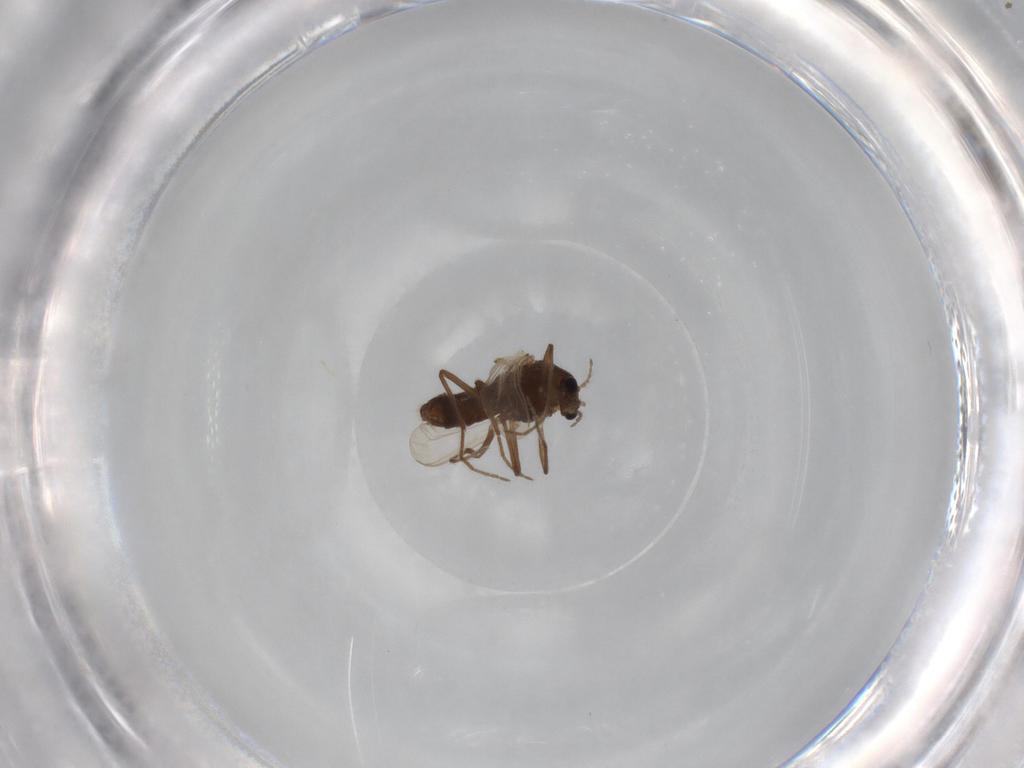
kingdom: Animalia
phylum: Arthropoda
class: Insecta
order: Diptera
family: Chironomidae
